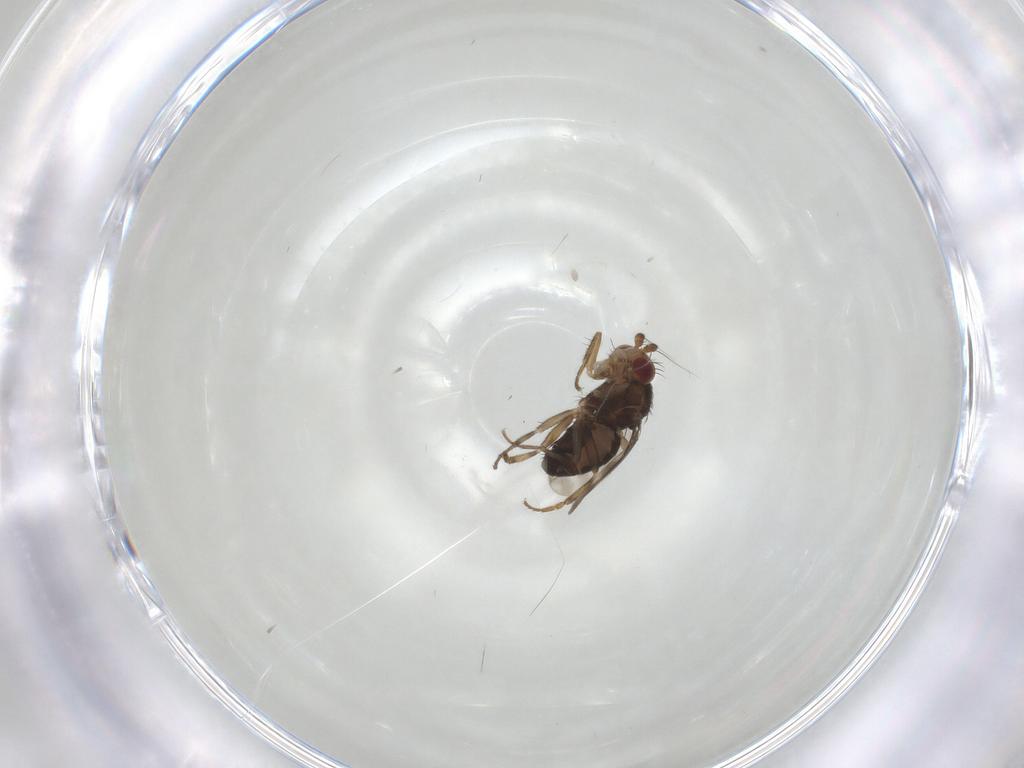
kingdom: Animalia
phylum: Arthropoda
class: Insecta
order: Diptera
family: Sphaeroceridae
